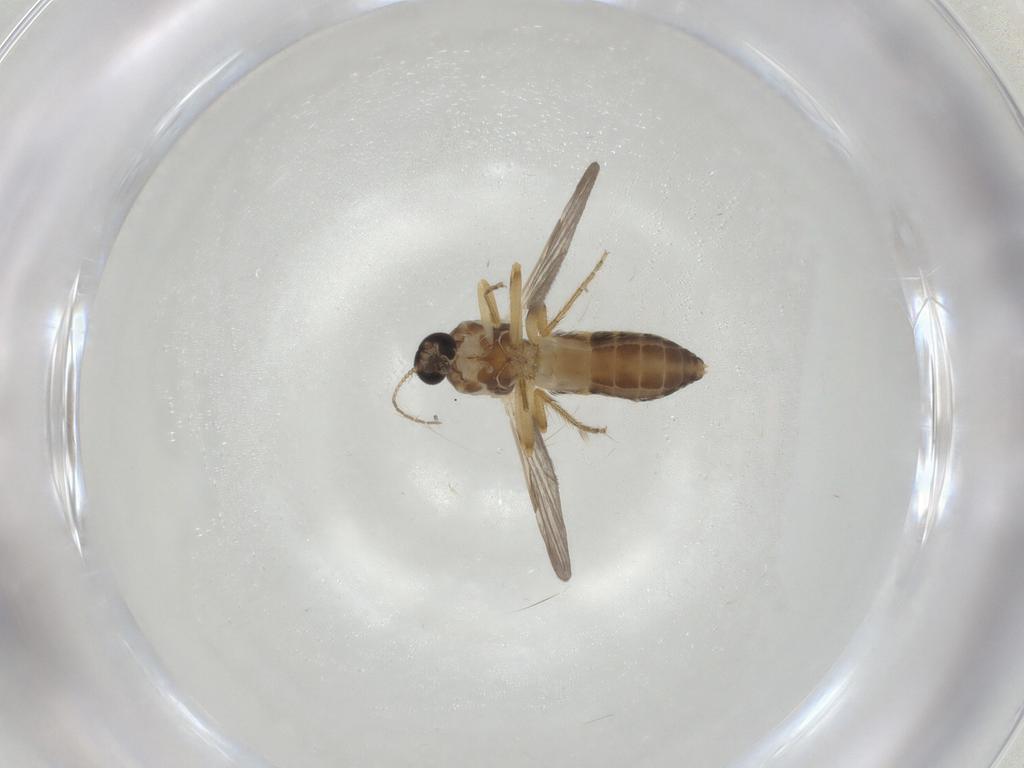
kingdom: Animalia
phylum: Arthropoda
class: Insecta
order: Diptera
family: Ceratopogonidae
